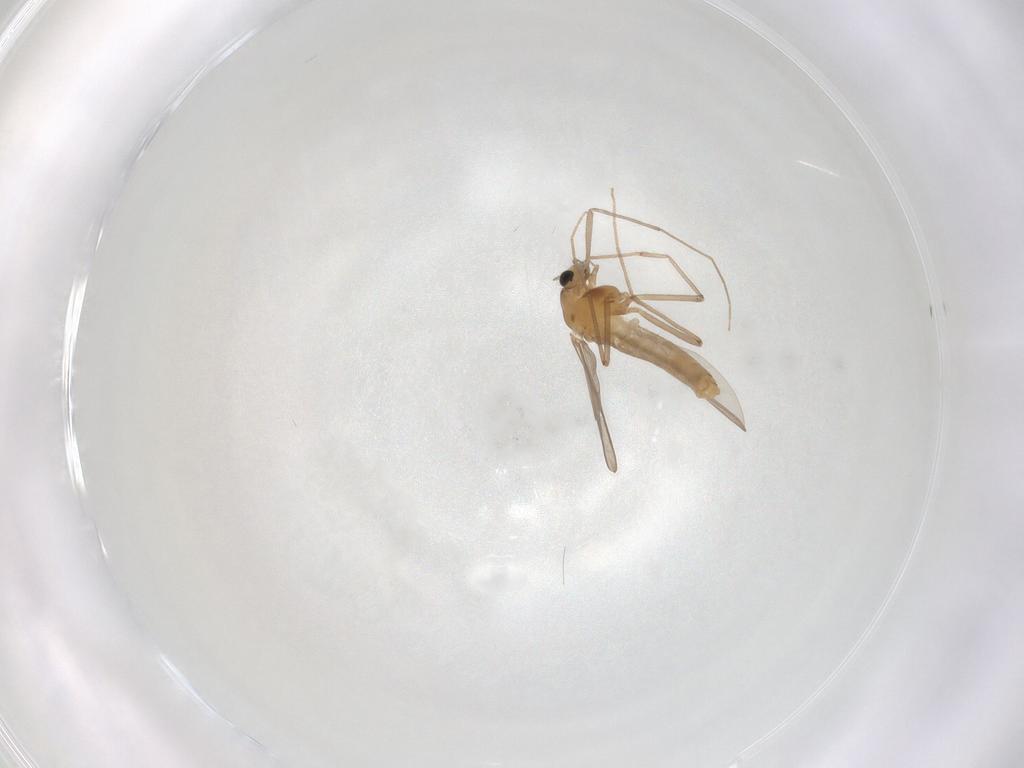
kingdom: Animalia
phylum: Arthropoda
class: Insecta
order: Diptera
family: Chironomidae
